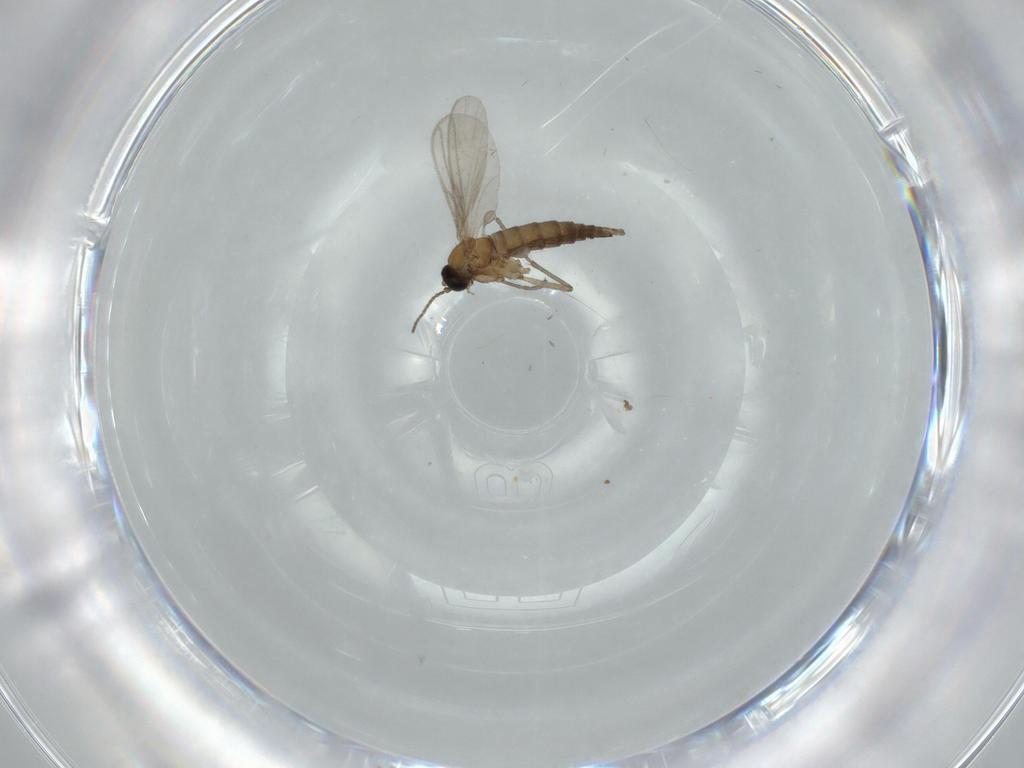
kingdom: Animalia
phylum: Arthropoda
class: Insecta
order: Diptera
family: Sciaridae
